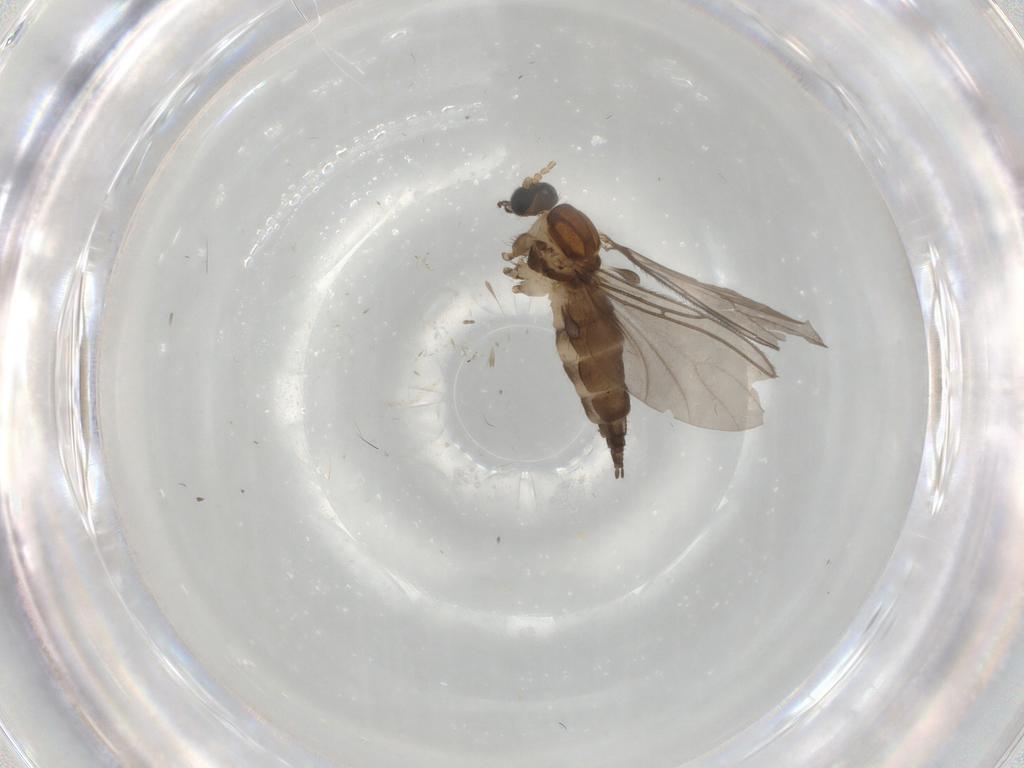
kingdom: Animalia
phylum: Arthropoda
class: Insecta
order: Diptera
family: Sciaridae
